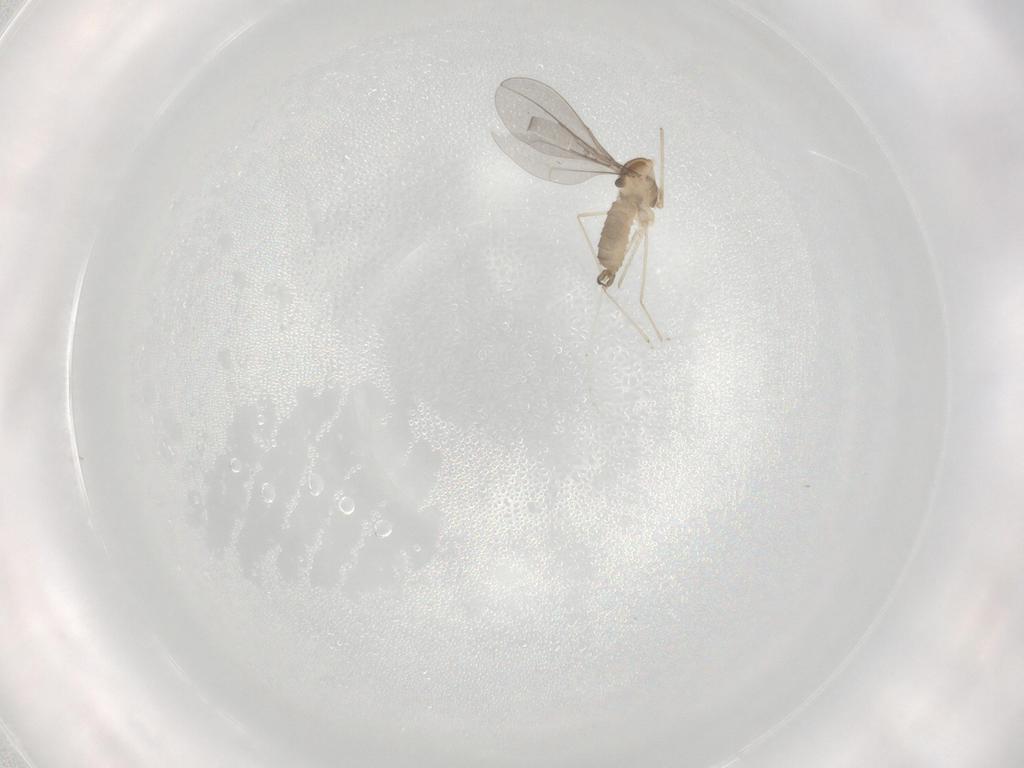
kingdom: Animalia
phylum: Arthropoda
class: Insecta
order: Diptera
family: Cecidomyiidae
